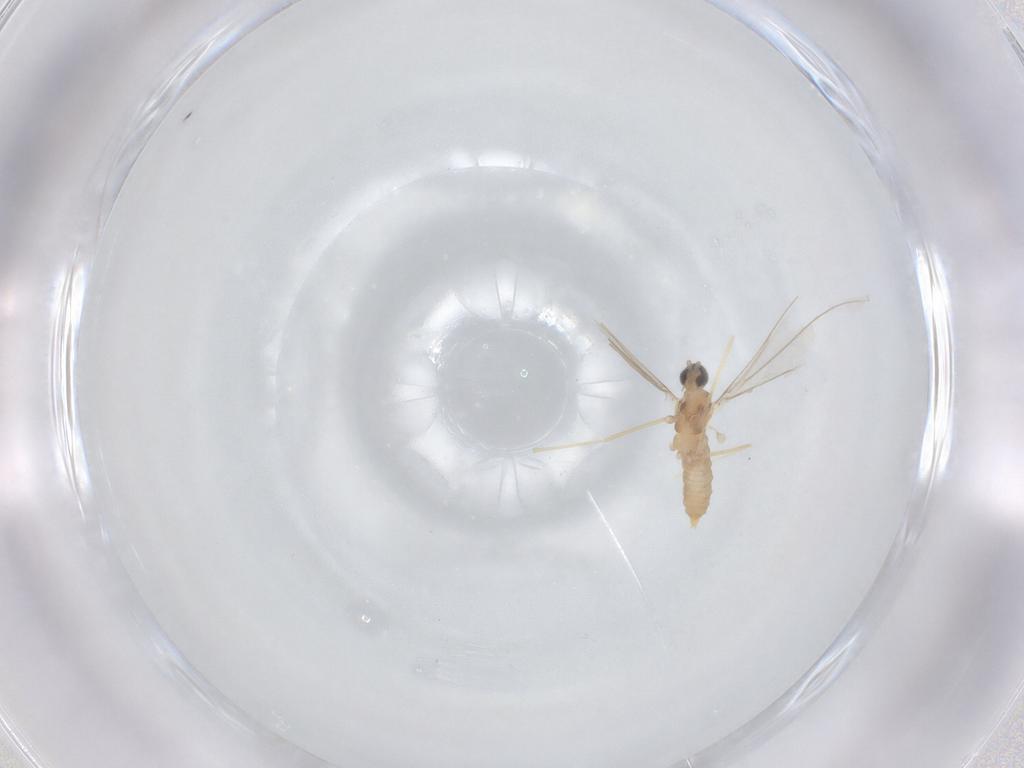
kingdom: Animalia
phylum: Arthropoda
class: Insecta
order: Diptera
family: Cecidomyiidae
